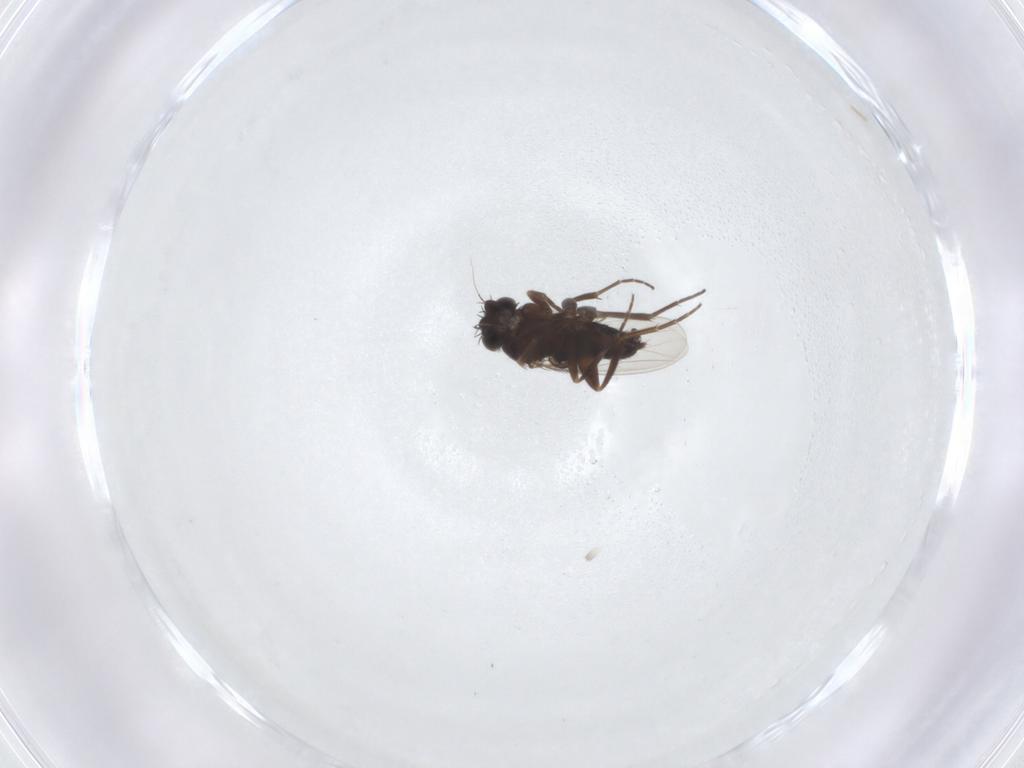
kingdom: Animalia
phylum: Arthropoda
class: Insecta
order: Diptera
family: Phoridae
